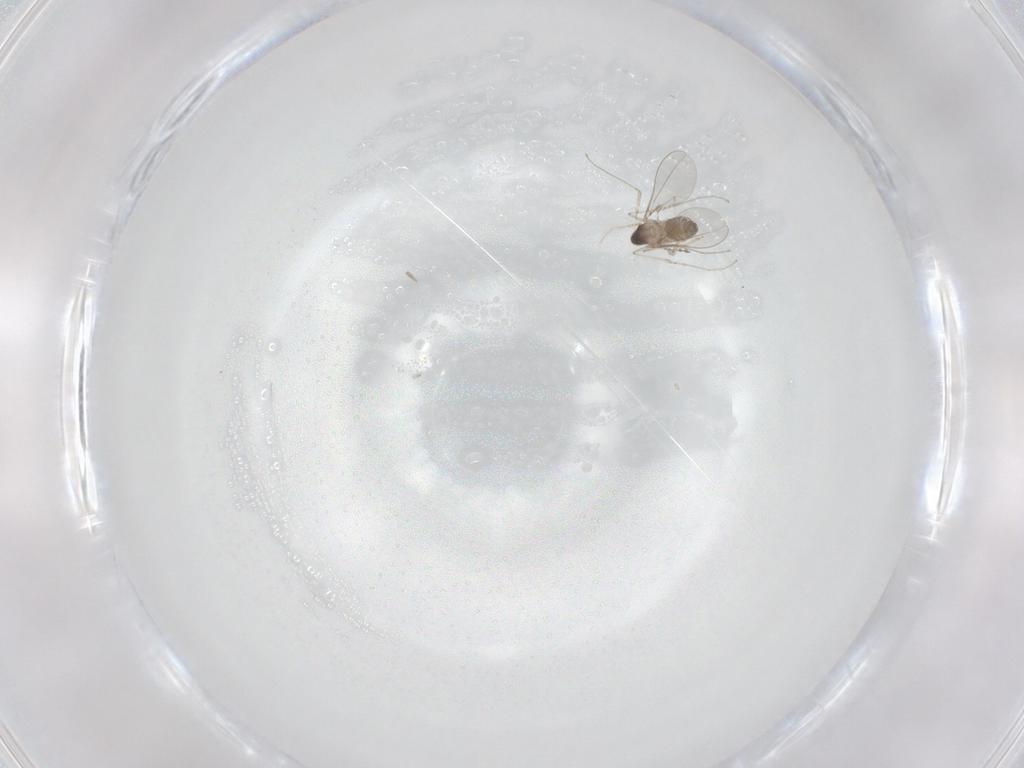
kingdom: Animalia
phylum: Arthropoda
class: Insecta
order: Diptera
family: Cecidomyiidae
